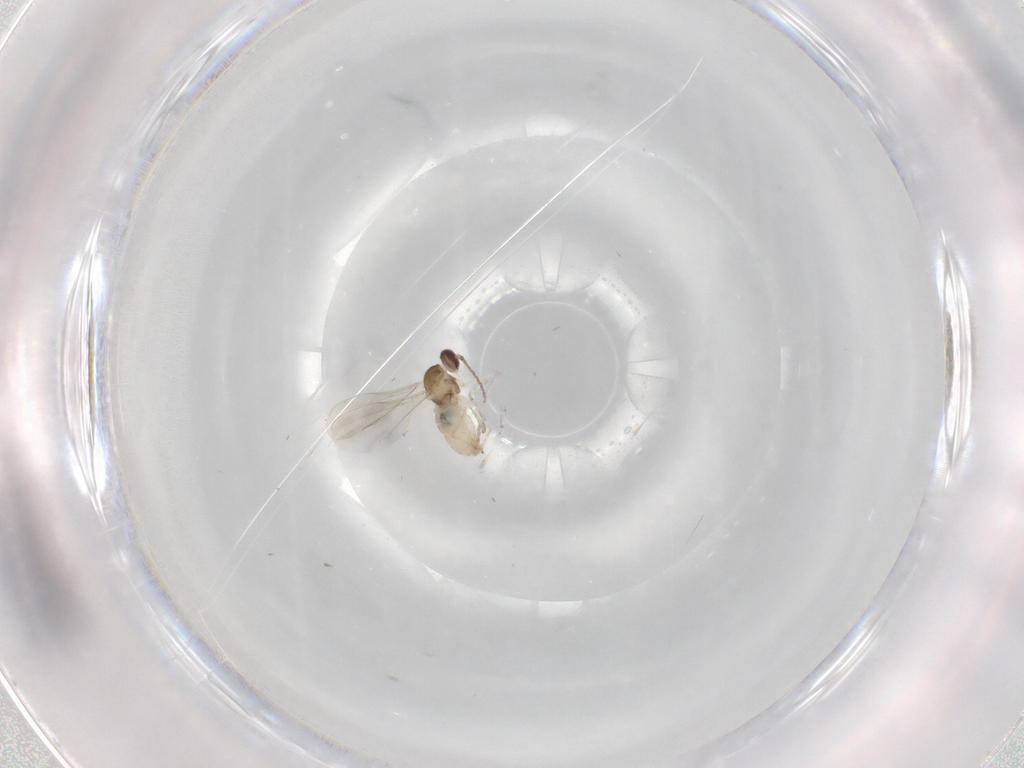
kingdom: Animalia
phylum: Arthropoda
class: Insecta
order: Diptera
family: Cecidomyiidae
